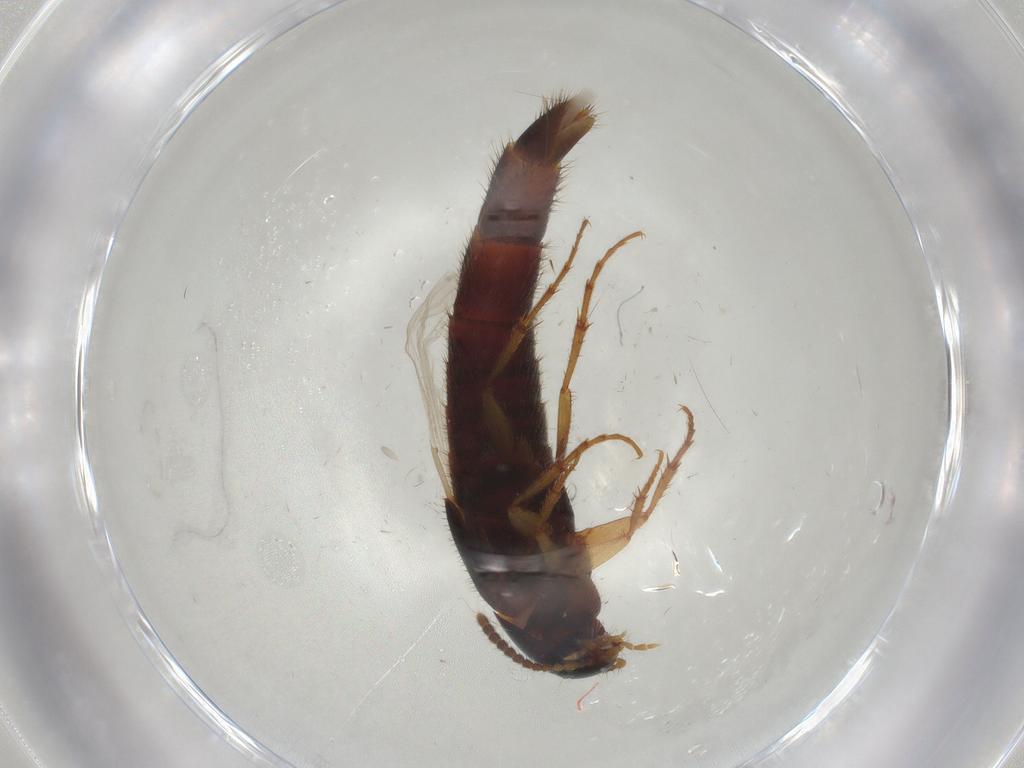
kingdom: Animalia
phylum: Arthropoda
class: Insecta
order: Coleoptera
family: Staphylinidae
